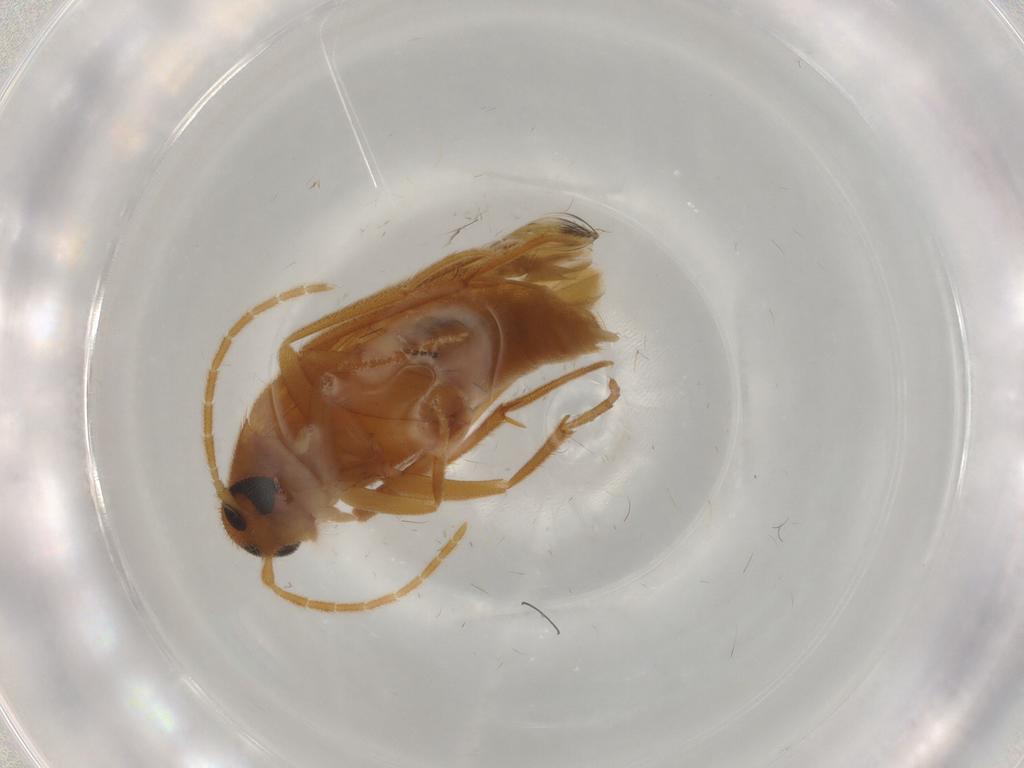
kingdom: Animalia
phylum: Arthropoda
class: Insecta
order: Coleoptera
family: Scraptiidae
